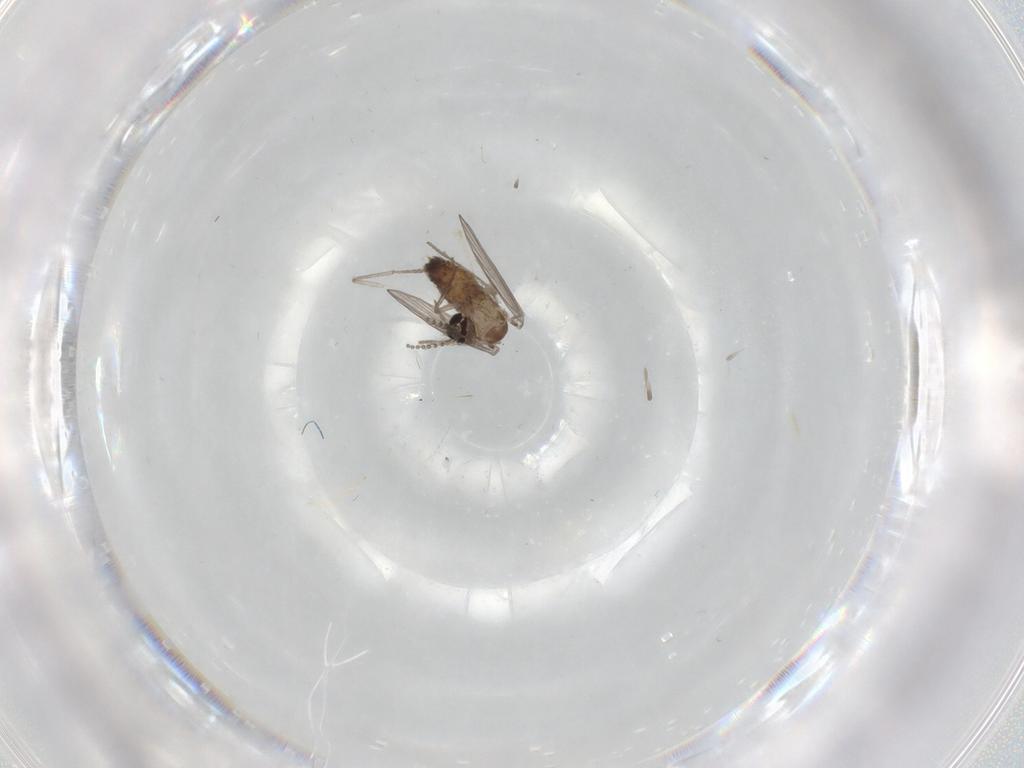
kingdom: Animalia
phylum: Arthropoda
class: Insecta
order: Diptera
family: Psychodidae
